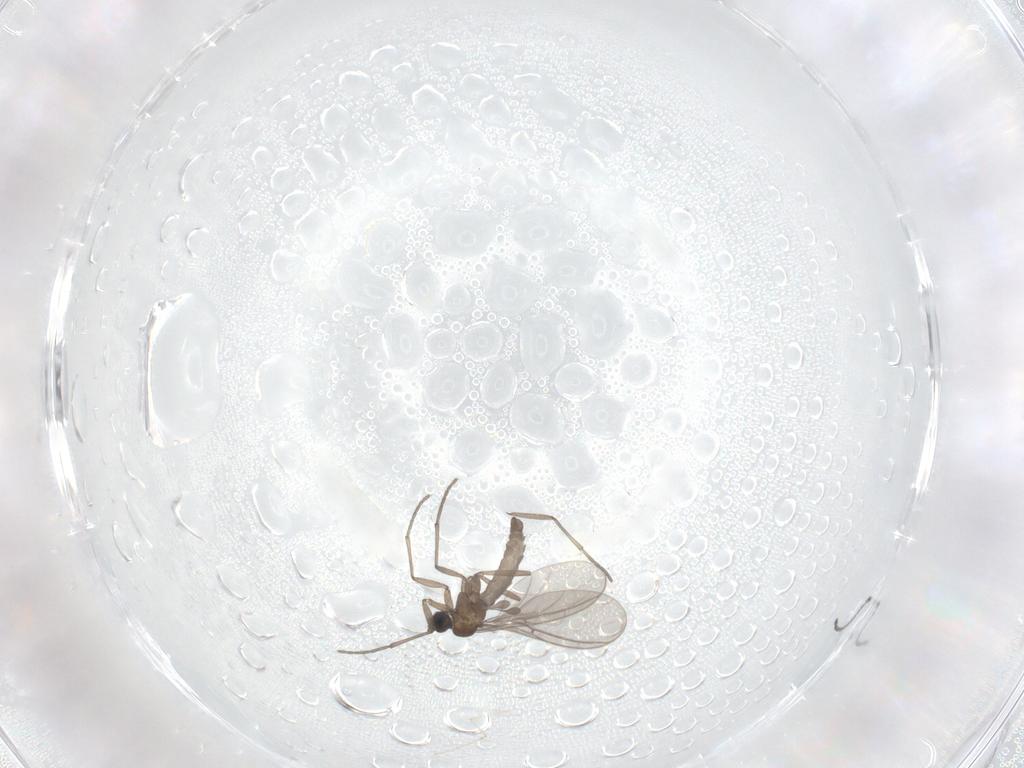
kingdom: Animalia
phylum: Arthropoda
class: Insecta
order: Diptera
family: Sciaridae
